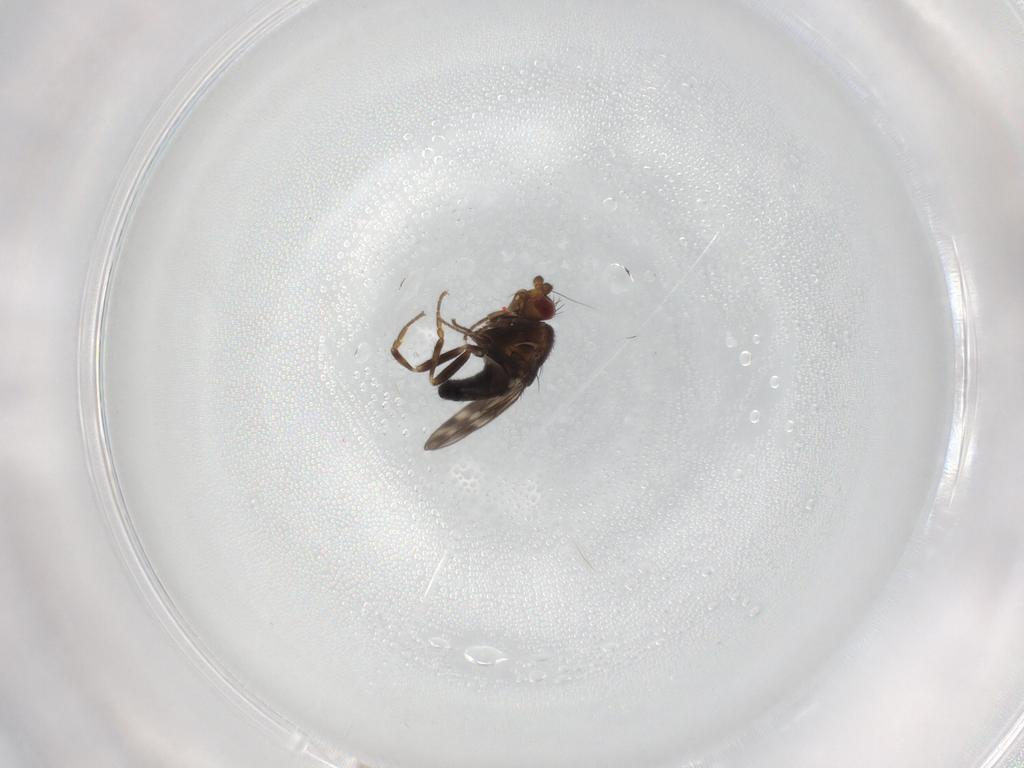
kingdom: Animalia
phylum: Arthropoda
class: Insecta
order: Diptera
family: Sphaeroceridae
